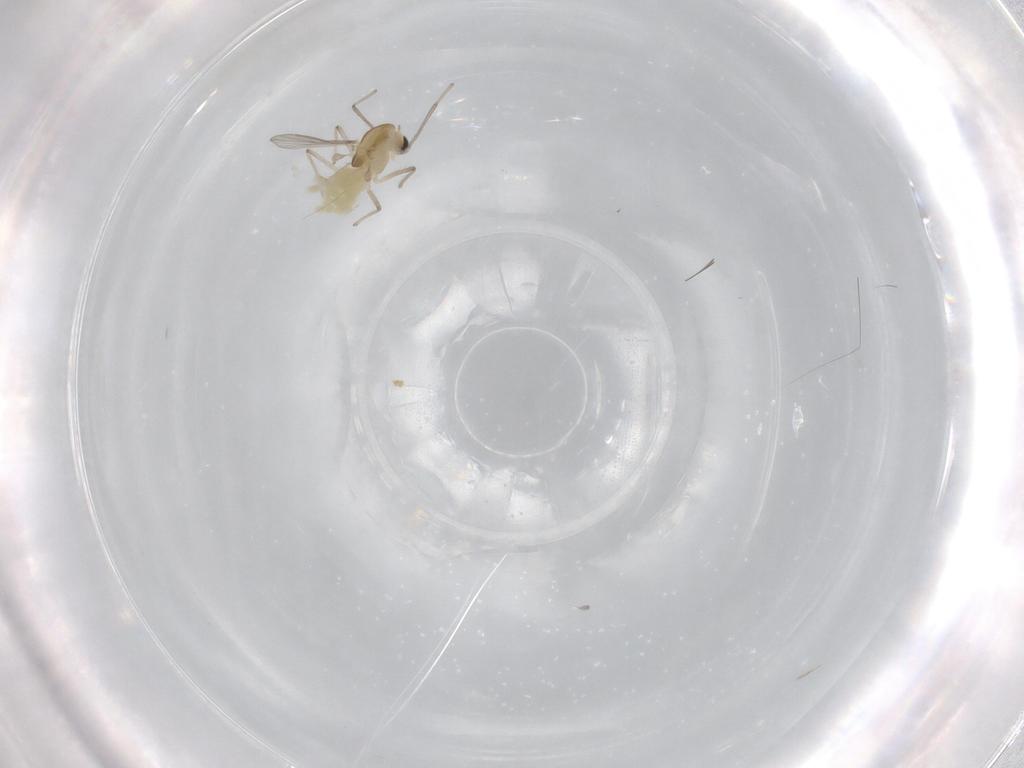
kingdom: Animalia
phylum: Arthropoda
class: Insecta
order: Diptera
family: Chironomidae
